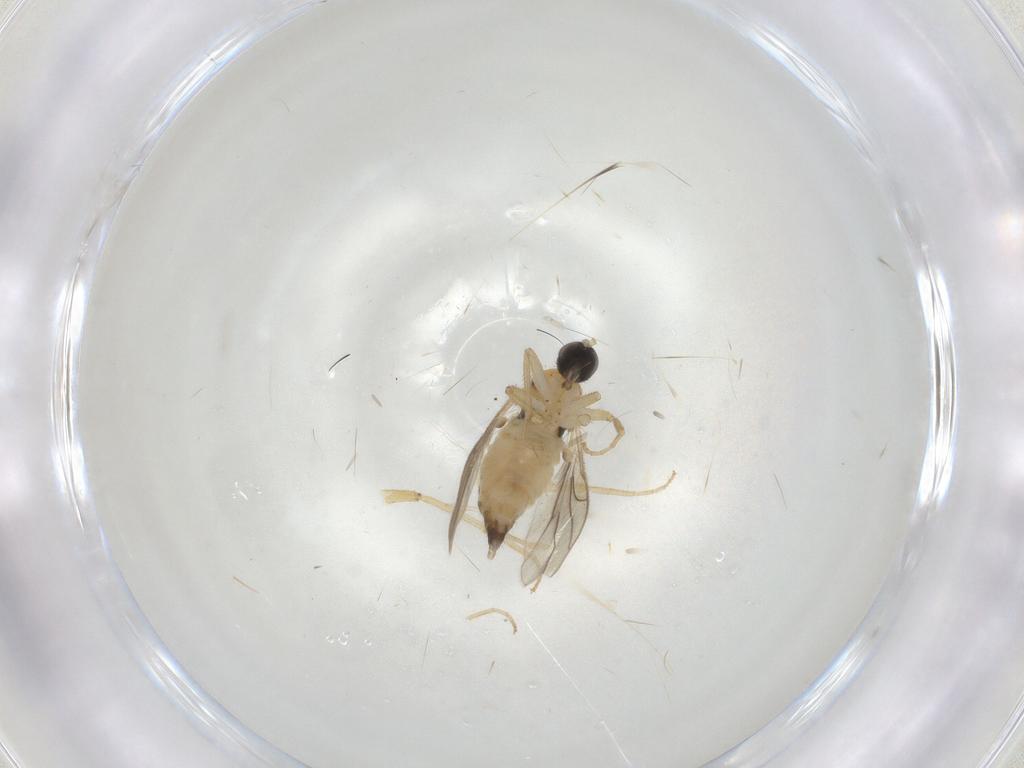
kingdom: Animalia
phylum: Arthropoda
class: Insecta
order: Diptera
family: Hybotidae
